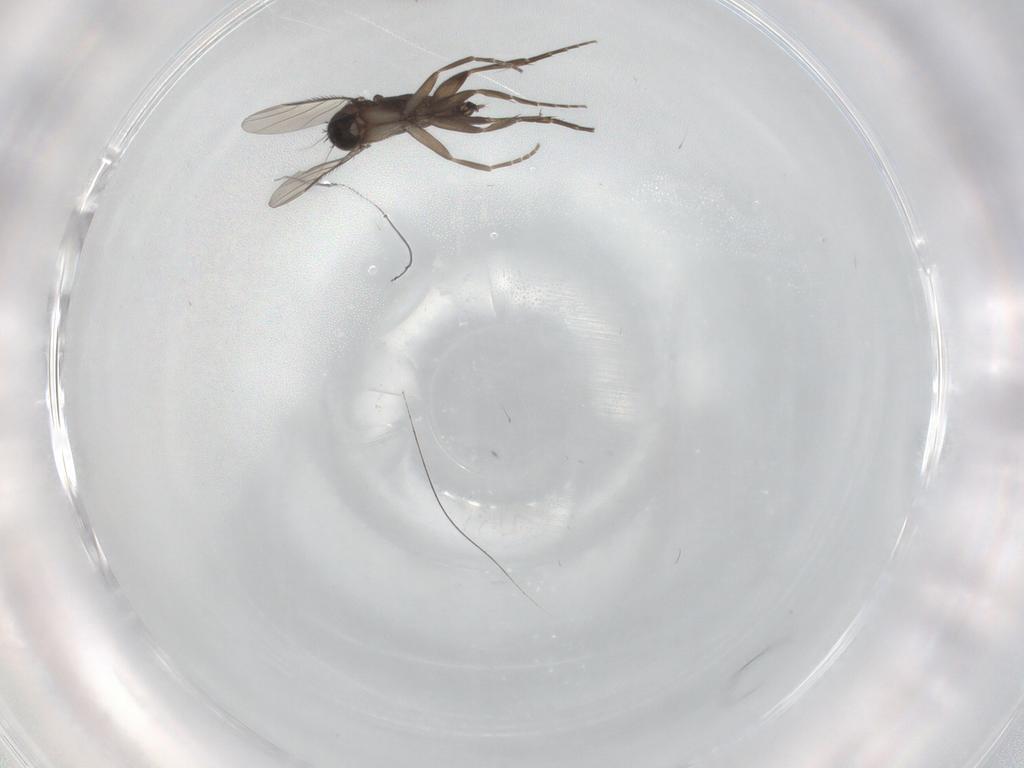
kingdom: Animalia
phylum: Arthropoda
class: Insecta
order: Diptera
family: Phoridae
